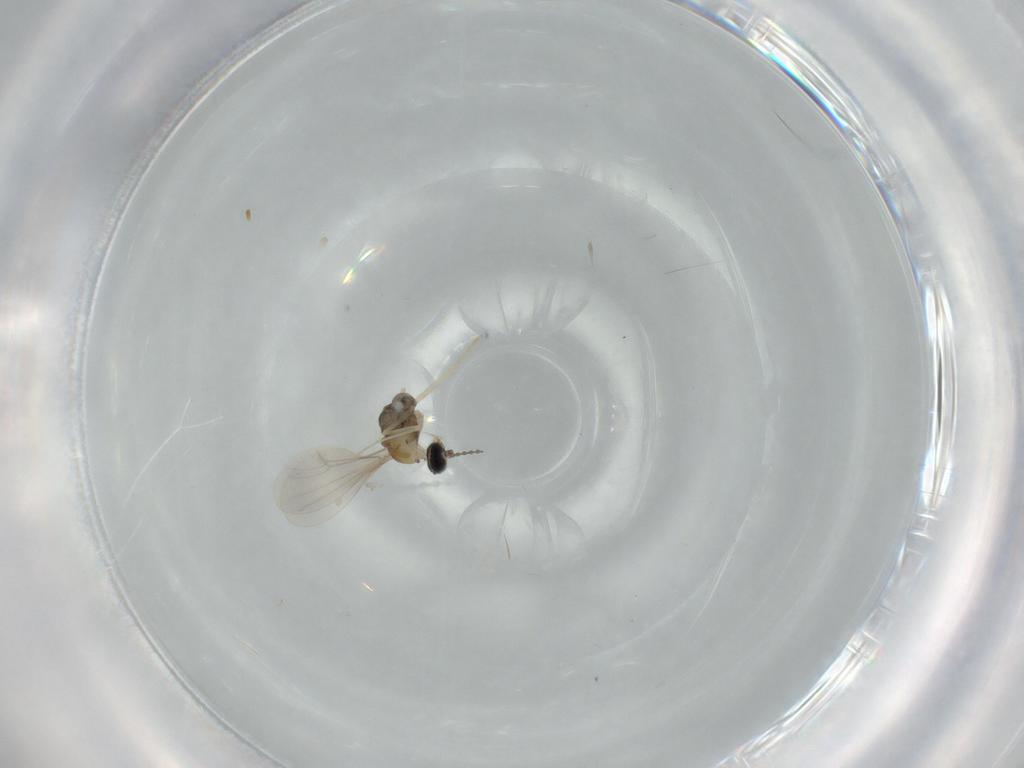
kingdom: Animalia
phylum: Arthropoda
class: Insecta
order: Diptera
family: Cecidomyiidae
